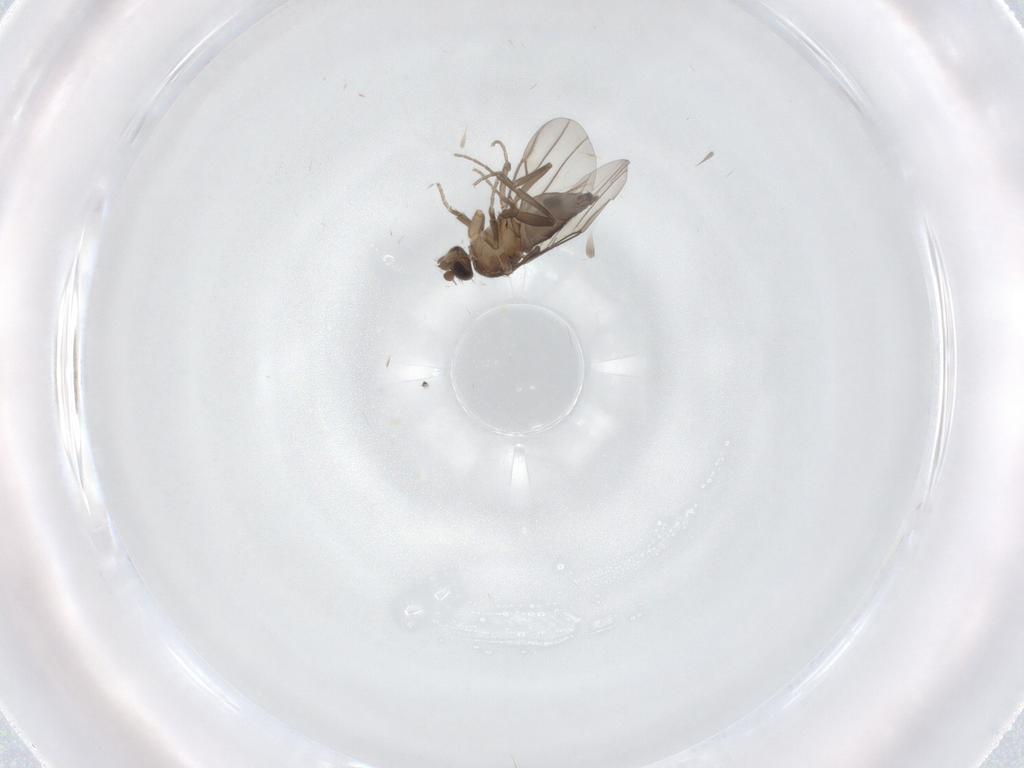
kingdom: Animalia
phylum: Arthropoda
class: Insecta
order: Diptera
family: Phoridae
